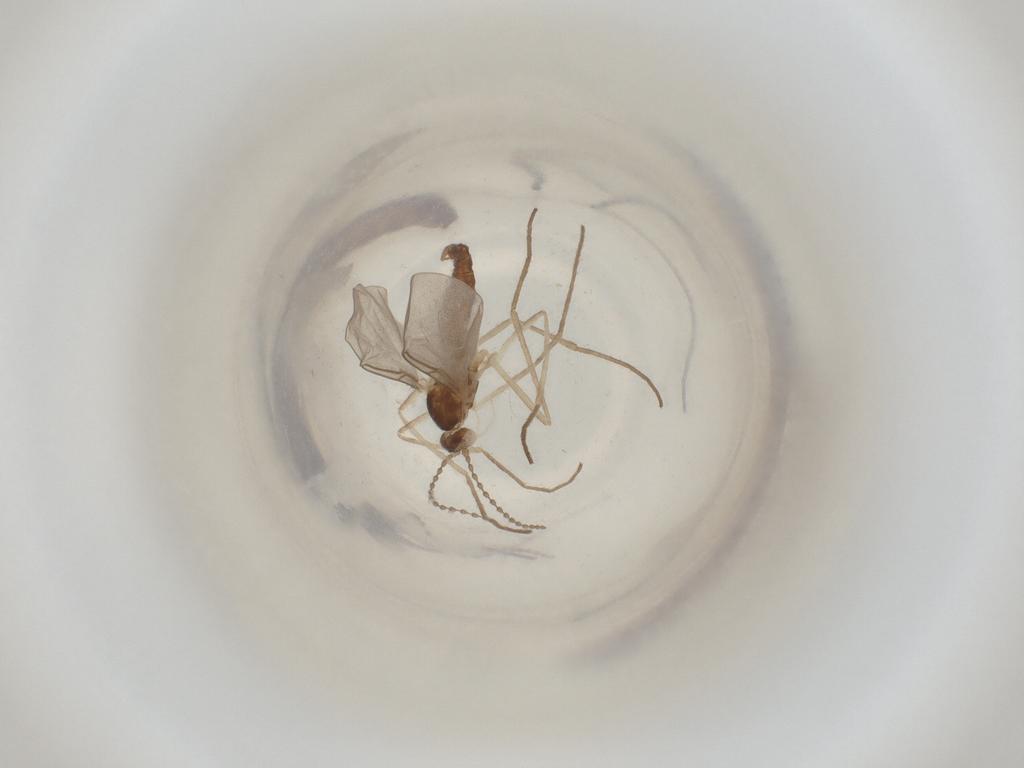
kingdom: Animalia
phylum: Arthropoda
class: Insecta
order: Diptera
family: Cecidomyiidae
